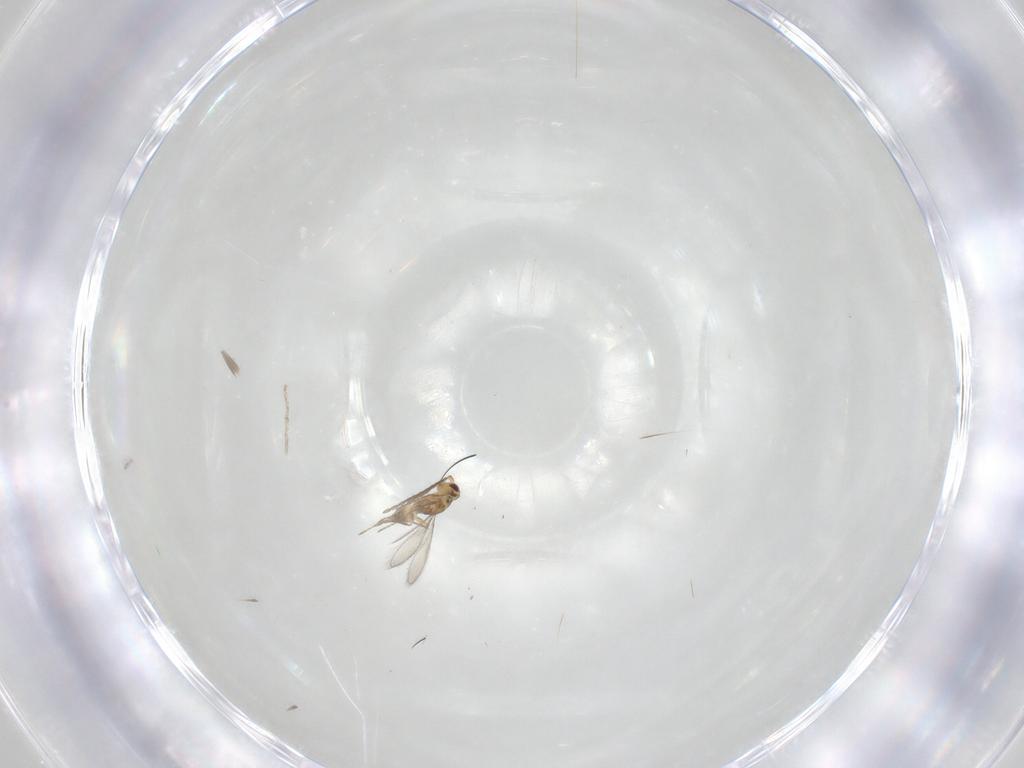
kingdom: Animalia
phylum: Arthropoda
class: Insecta
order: Hymenoptera
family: Mymaridae
